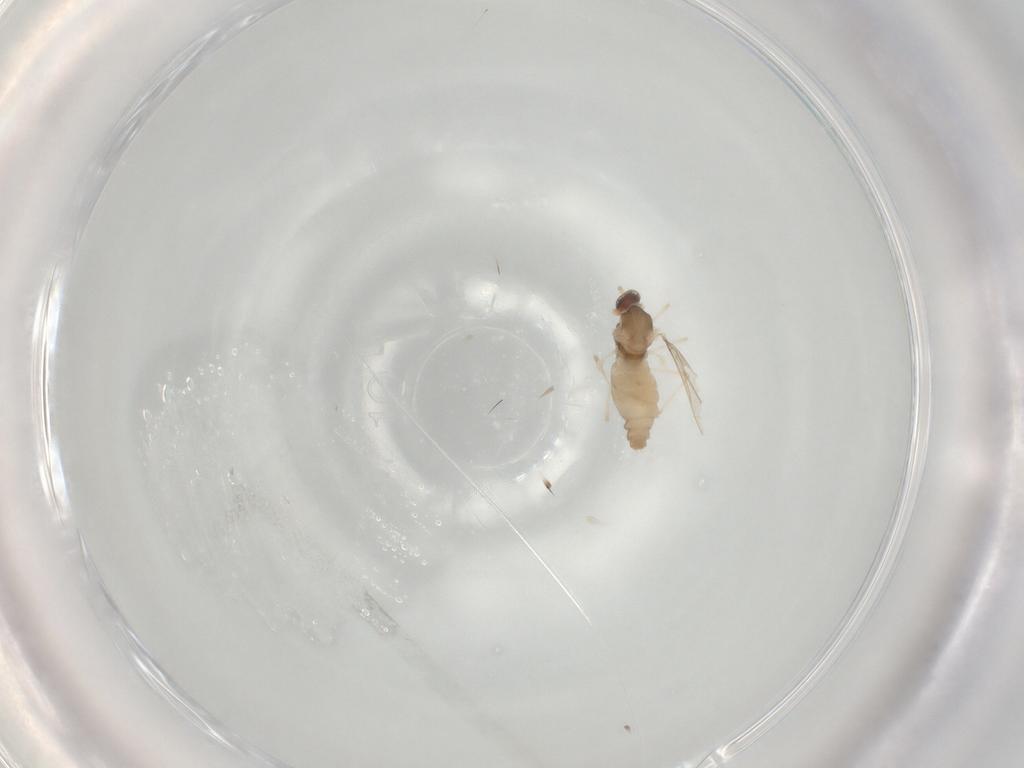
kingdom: Animalia
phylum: Arthropoda
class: Insecta
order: Diptera
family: Cecidomyiidae
